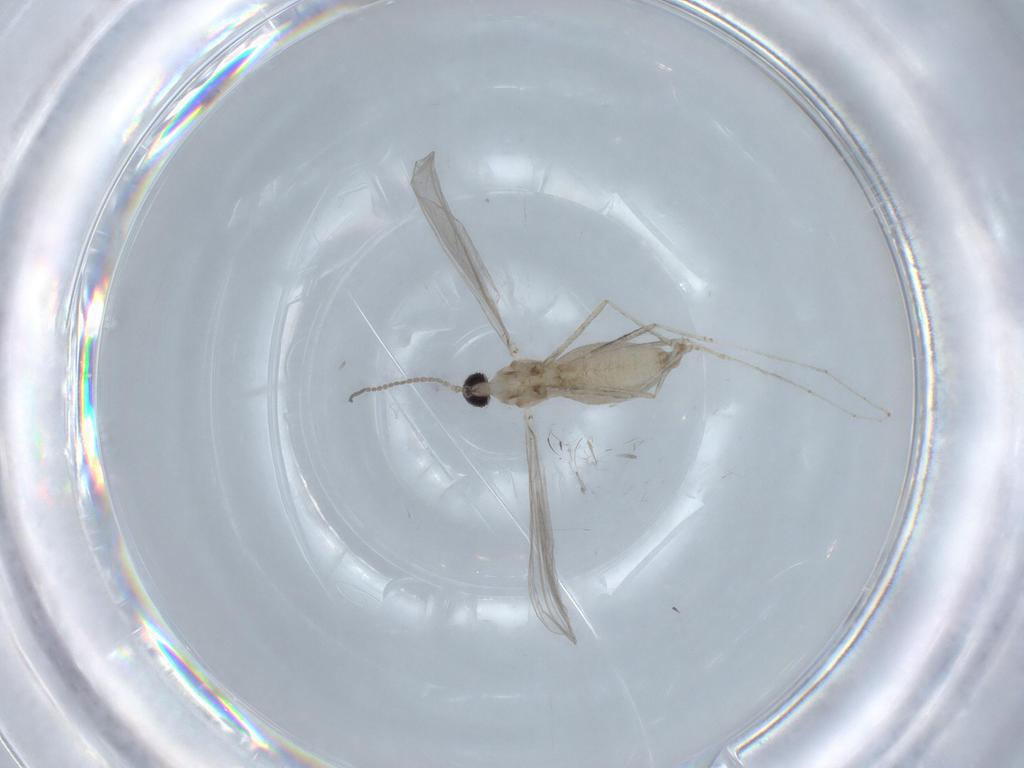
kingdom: Animalia
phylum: Arthropoda
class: Insecta
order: Diptera
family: Cecidomyiidae
